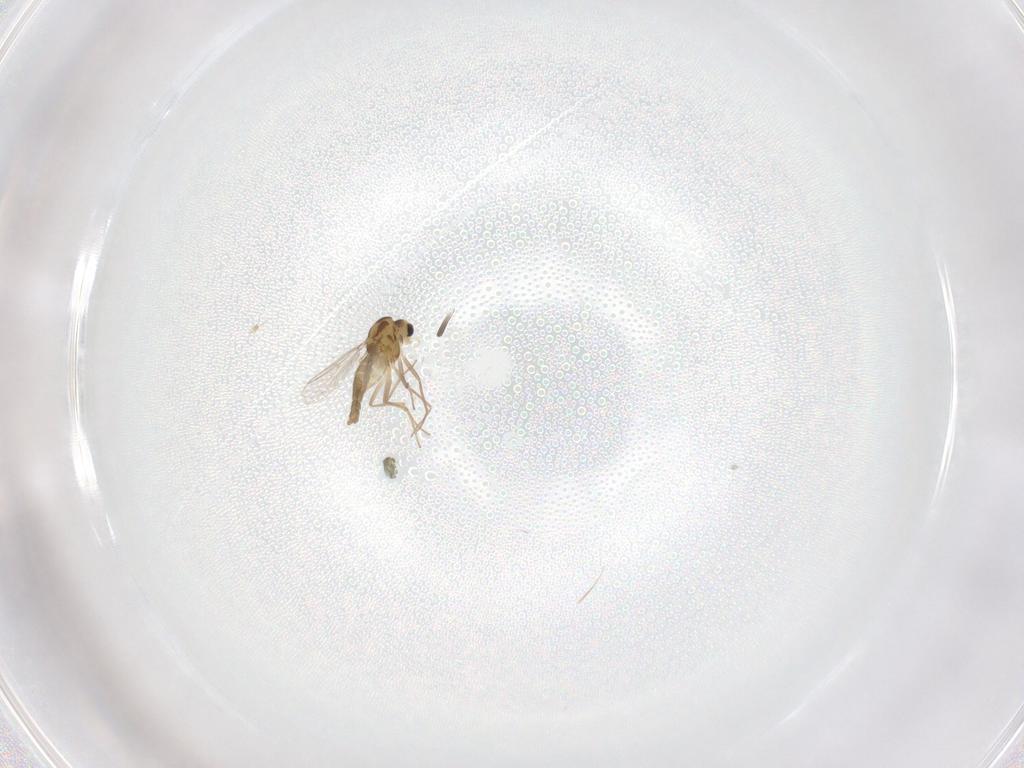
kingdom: Animalia
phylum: Arthropoda
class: Insecta
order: Diptera
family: Chironomidae
